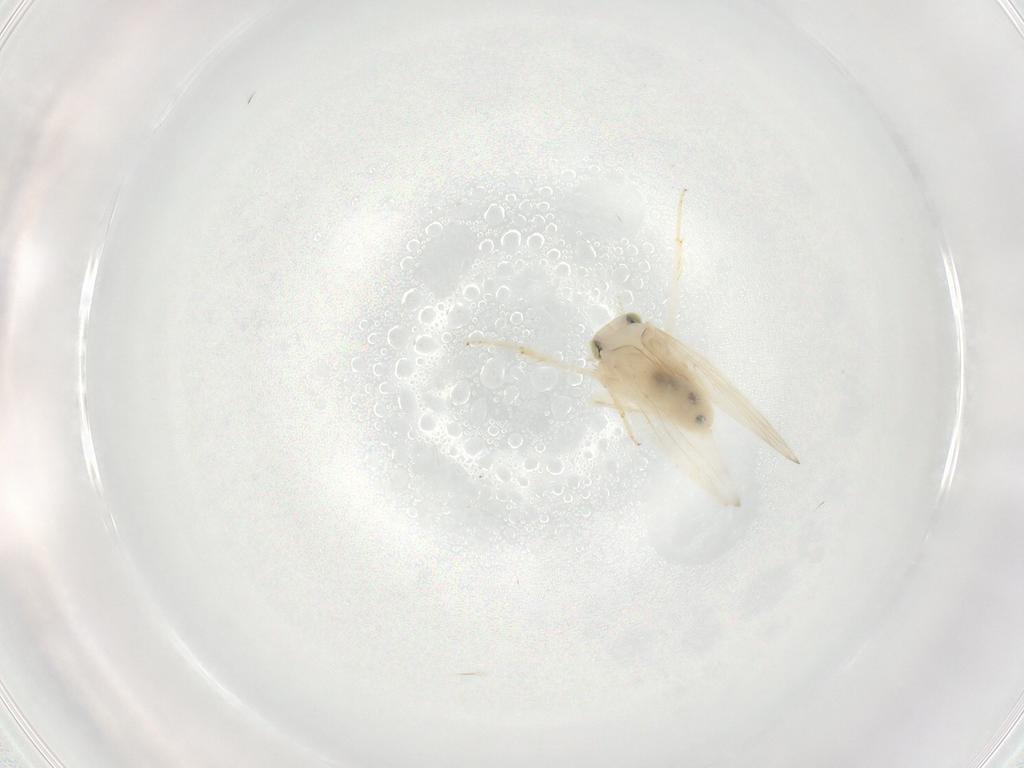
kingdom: Animalia
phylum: Arthropoda
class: Insecta
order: Psocodea
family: Lepidopsocidae
